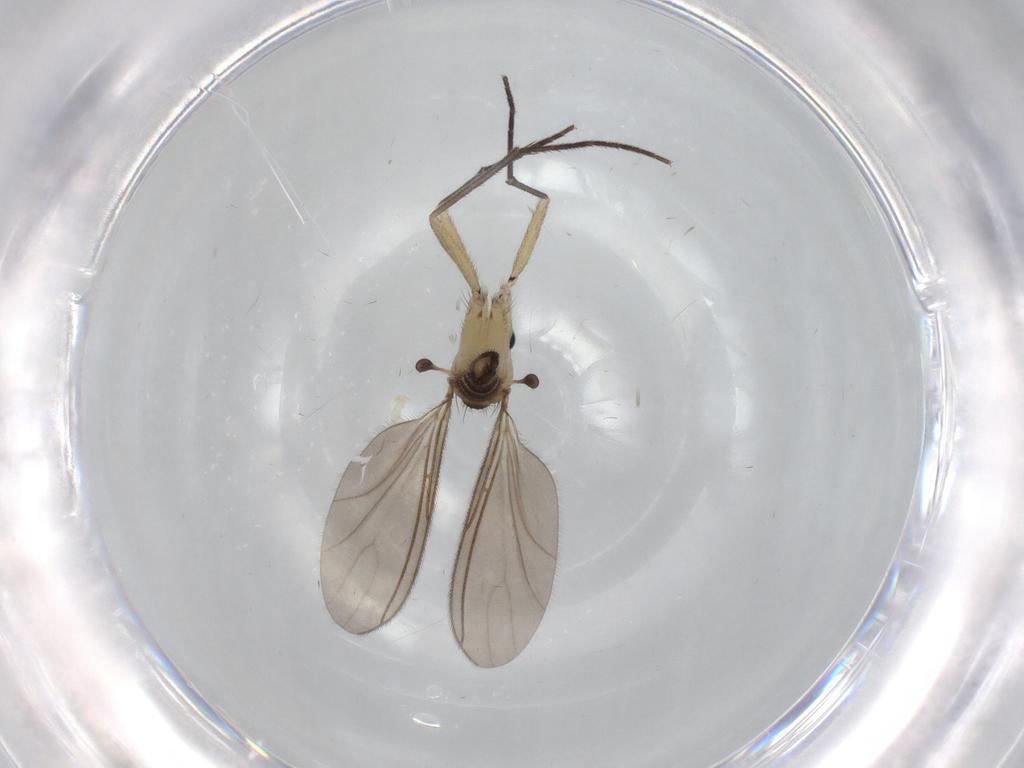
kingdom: Animalia
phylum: Arthropoda
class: Insecta
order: Diptera
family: Sciaridae
